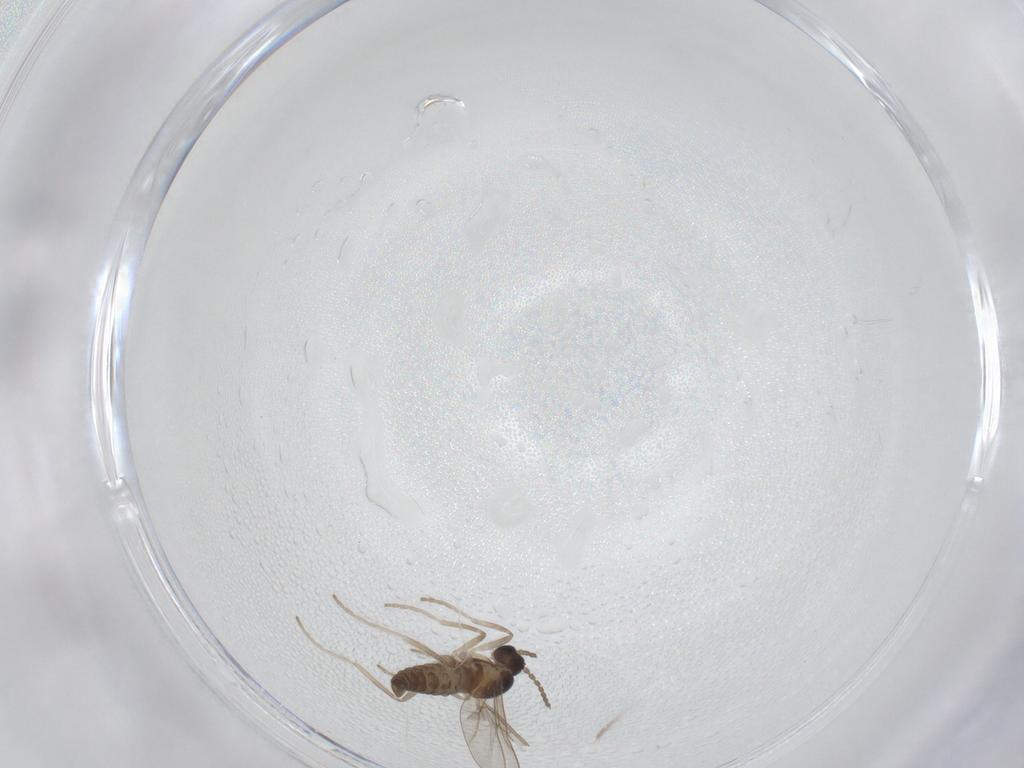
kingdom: Animalia
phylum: Arthropoda
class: Insecta
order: Diptera
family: Cecidomyiidae
